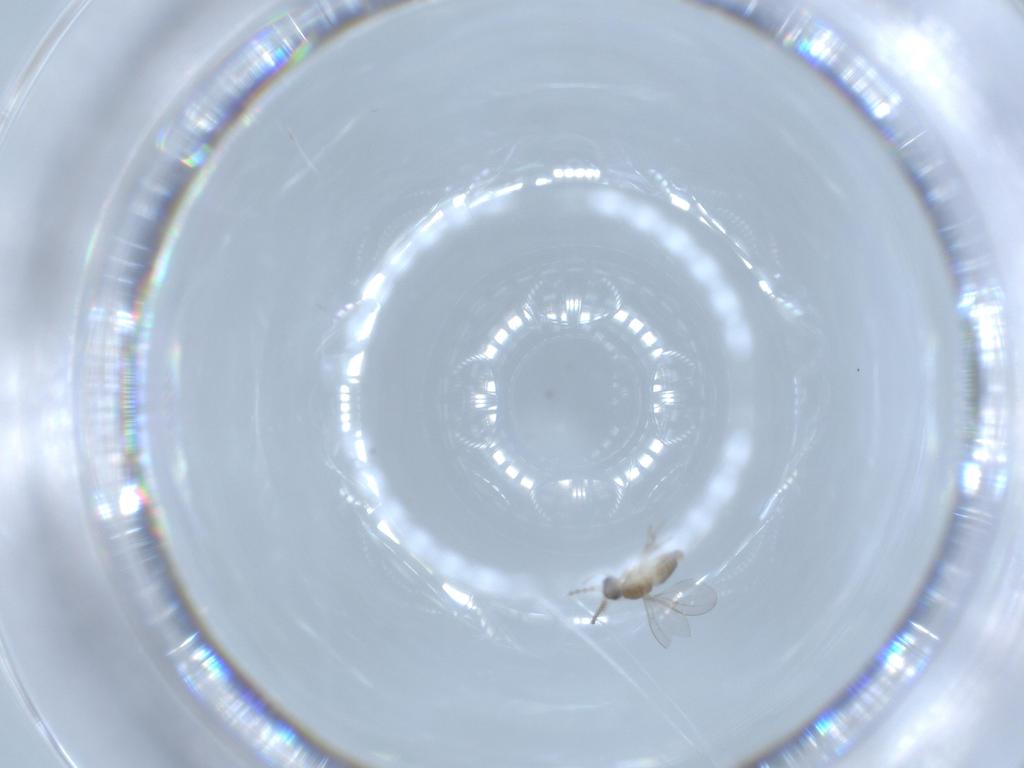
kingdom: Animalia
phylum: Arthropoda
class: Insecta
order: Diptera
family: Cecidomyiidae
